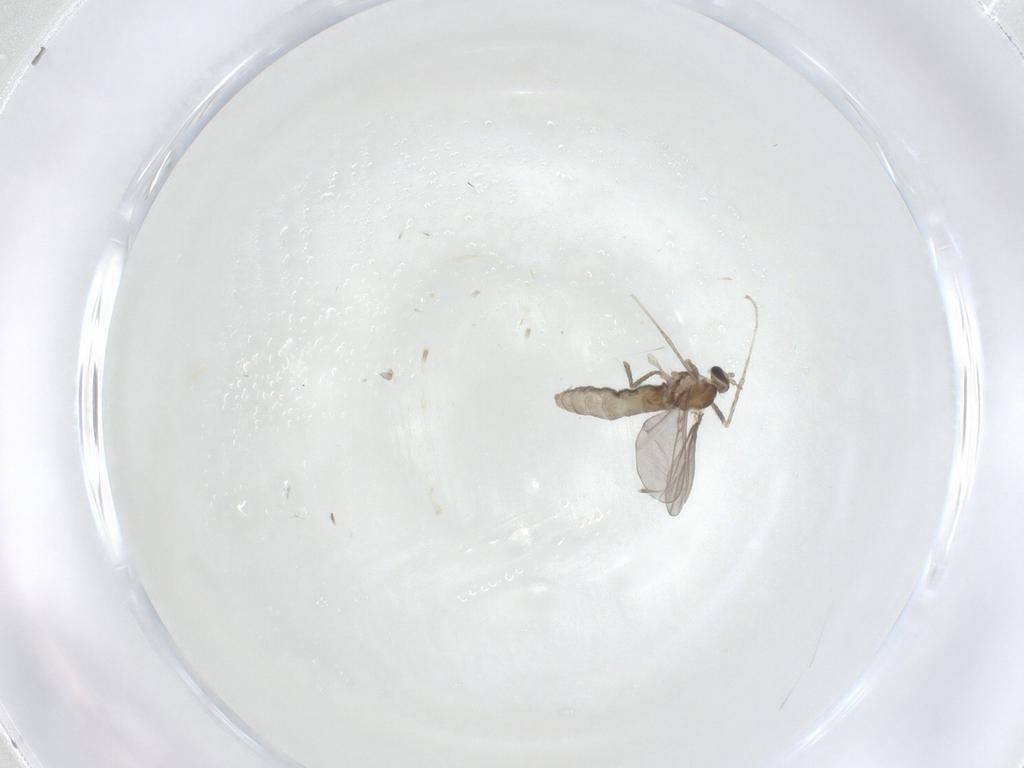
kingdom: Animalia
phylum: Arthropoda
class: Insecta
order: Diptera
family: Cecidomyiidae
